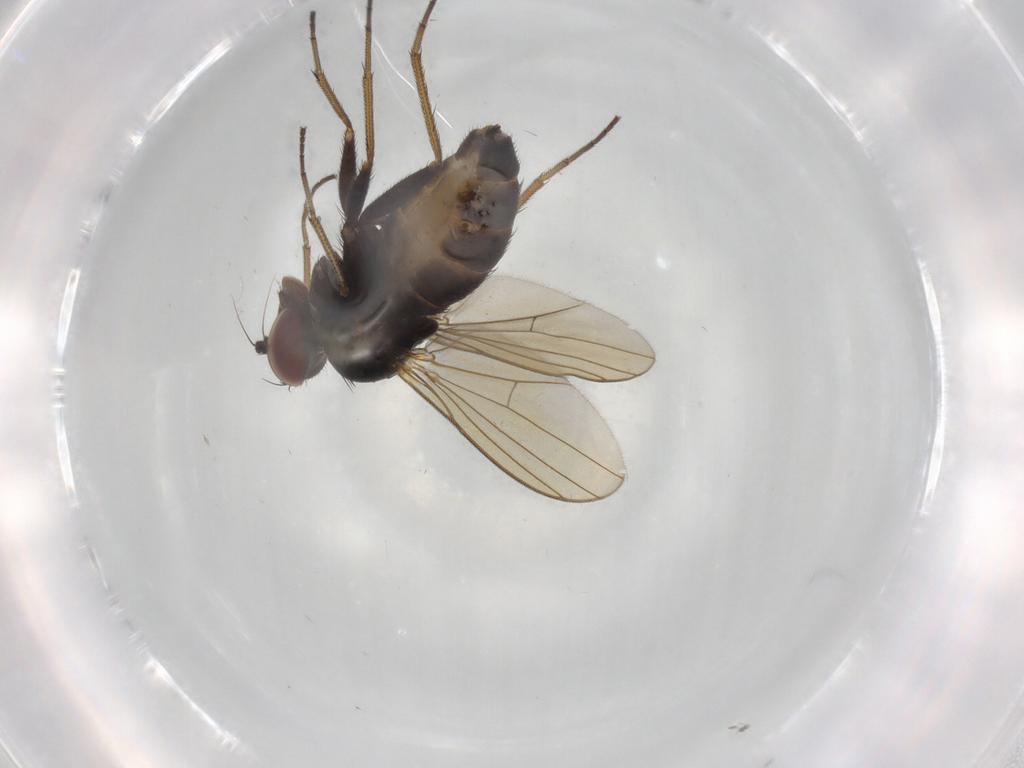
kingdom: Animalia
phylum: Arthropoda
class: Insecta
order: Diptera
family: Dolichopodidae
